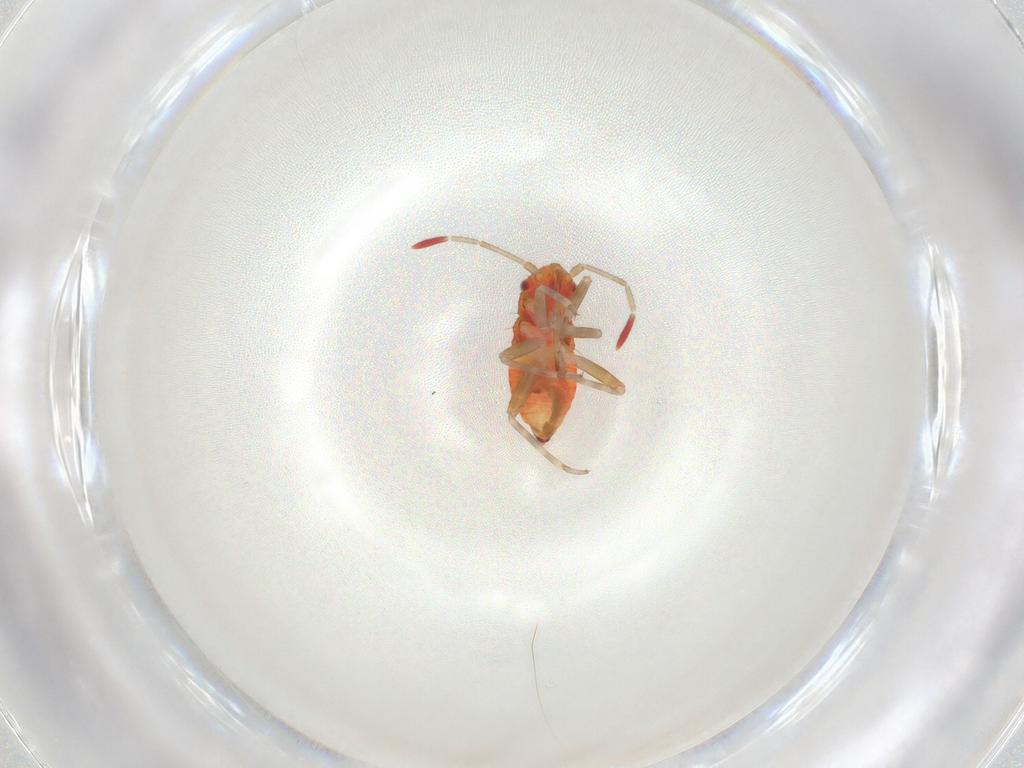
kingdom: Animalia
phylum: Arthropoda
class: Insecta
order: Hemiptera
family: Miridae
